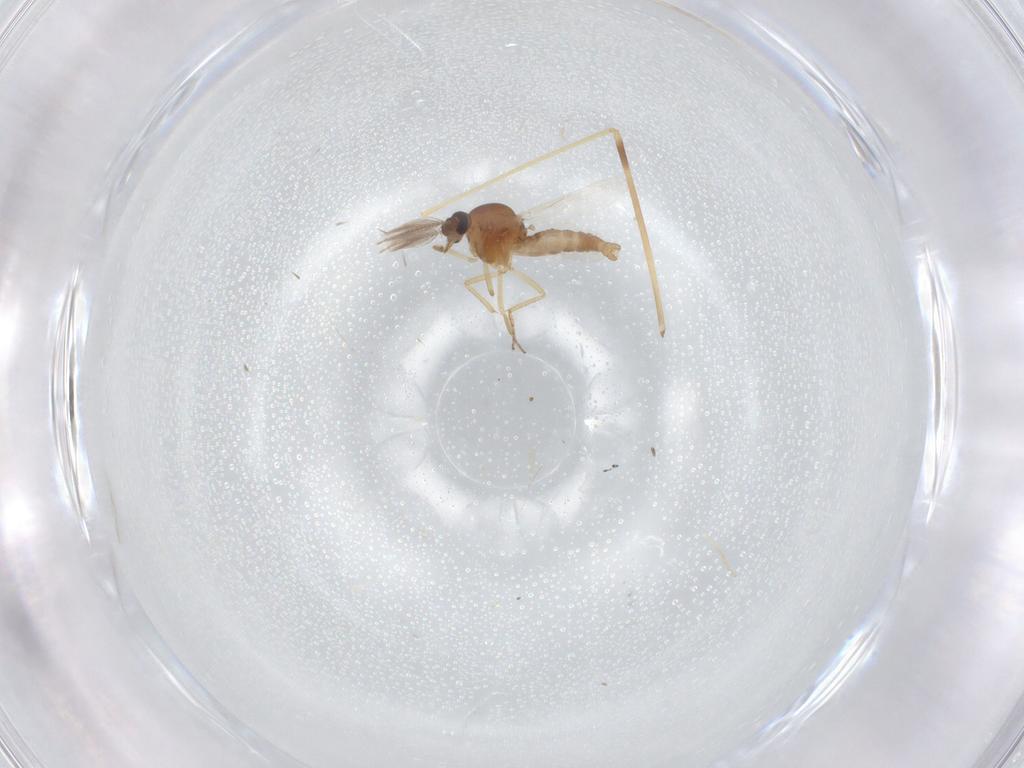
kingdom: Animalia
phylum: Arthropoda
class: Insecta
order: Diptera
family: Ceratopogonidae
